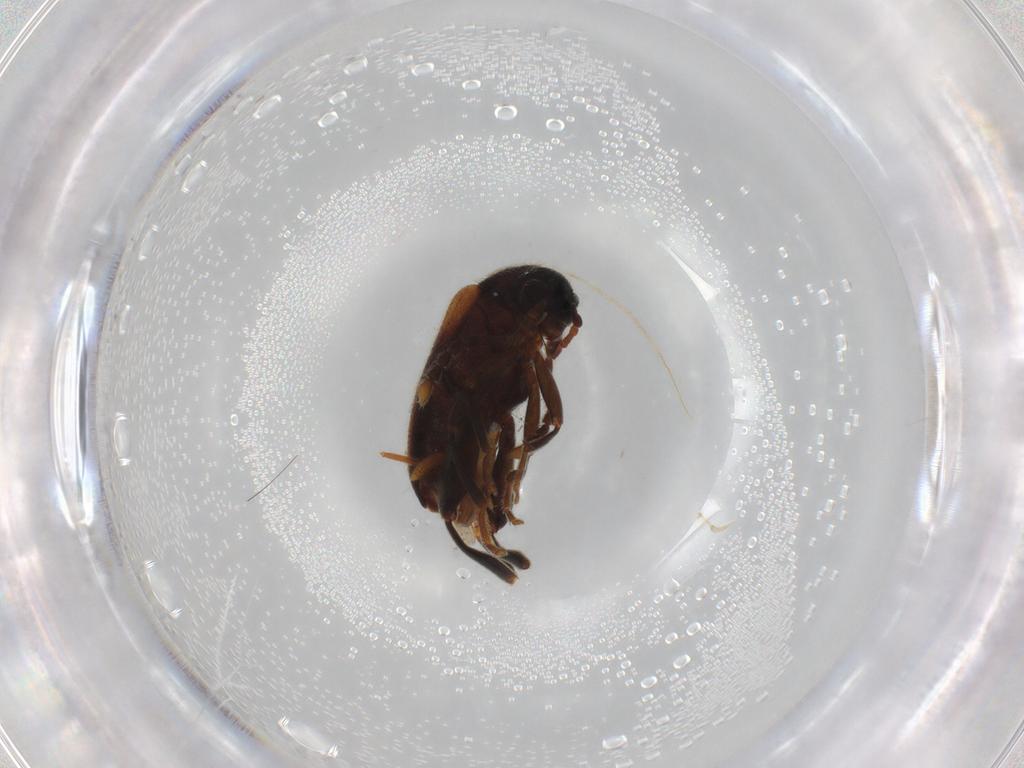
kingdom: Animalia
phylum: Arthropoda
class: Insecta
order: Coleoptera
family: Aderidae
